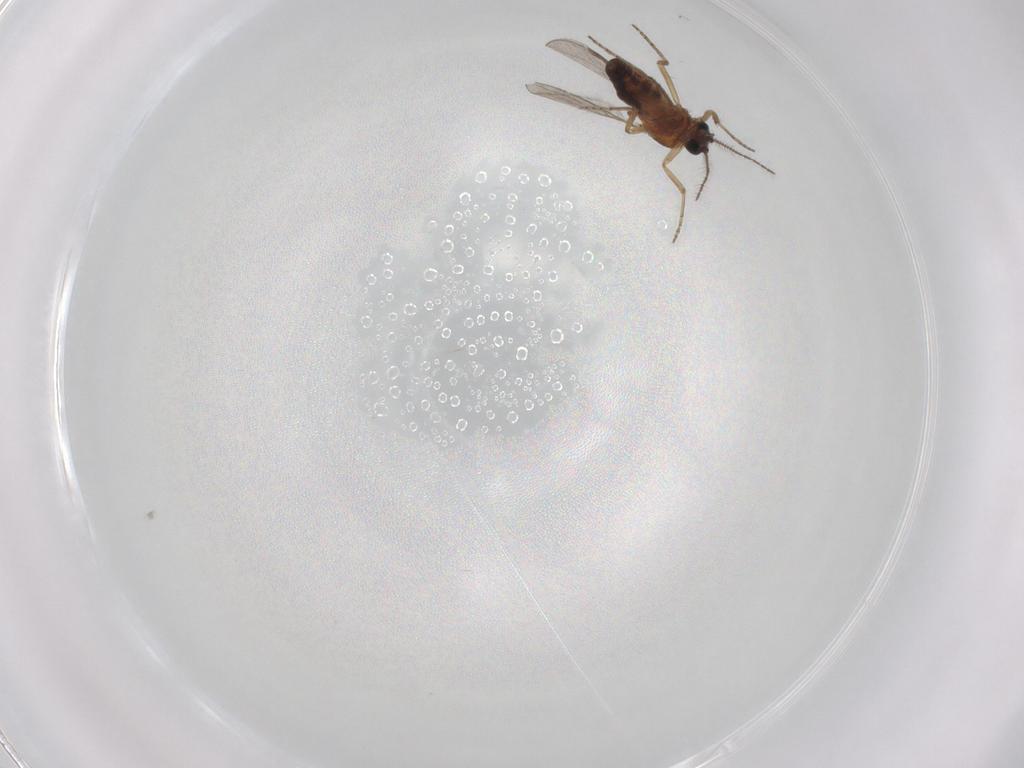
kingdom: Animalia
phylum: Arthropoda
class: Insecta
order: Diptera
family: Ceratopogonidae
